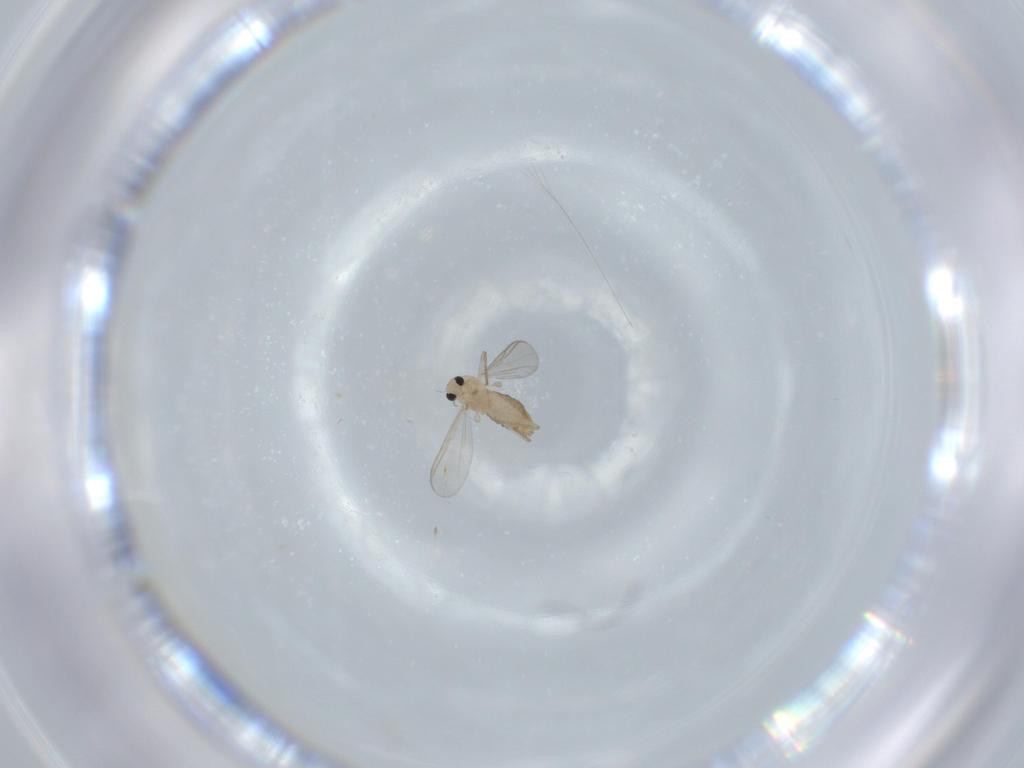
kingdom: Animalia
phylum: Arthropoda
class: Insecta
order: Diptera
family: Chironomidae
